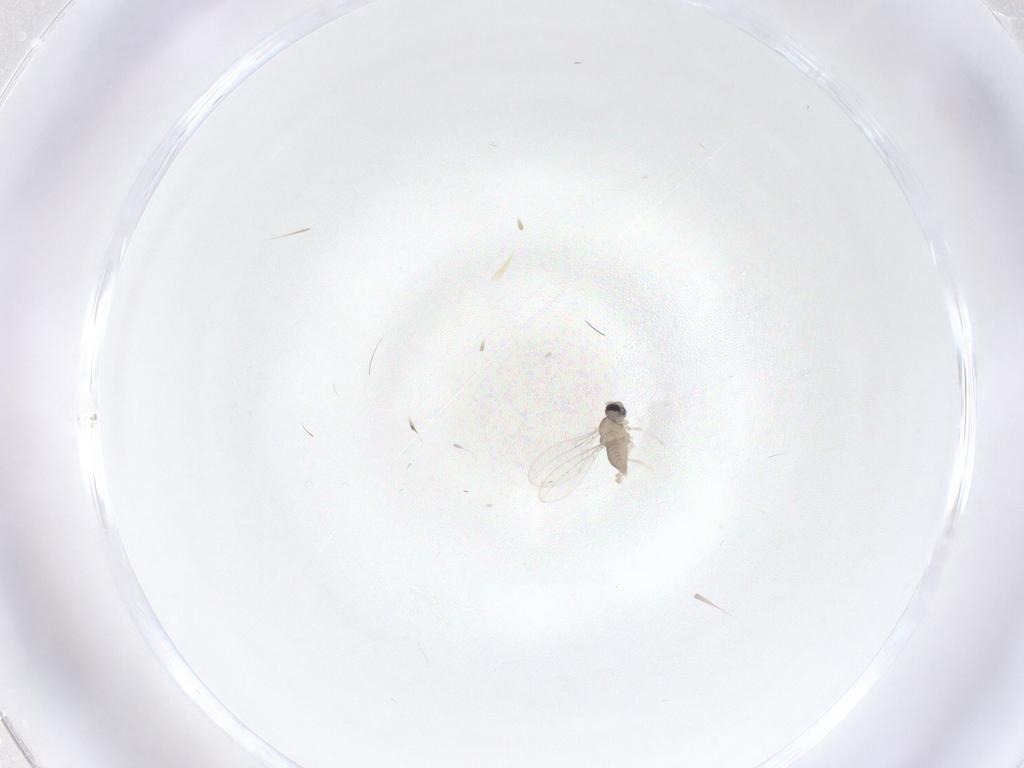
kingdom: Animalia
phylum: Arthropoda
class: Insecta
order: Diptera
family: Cecidomyiidae
